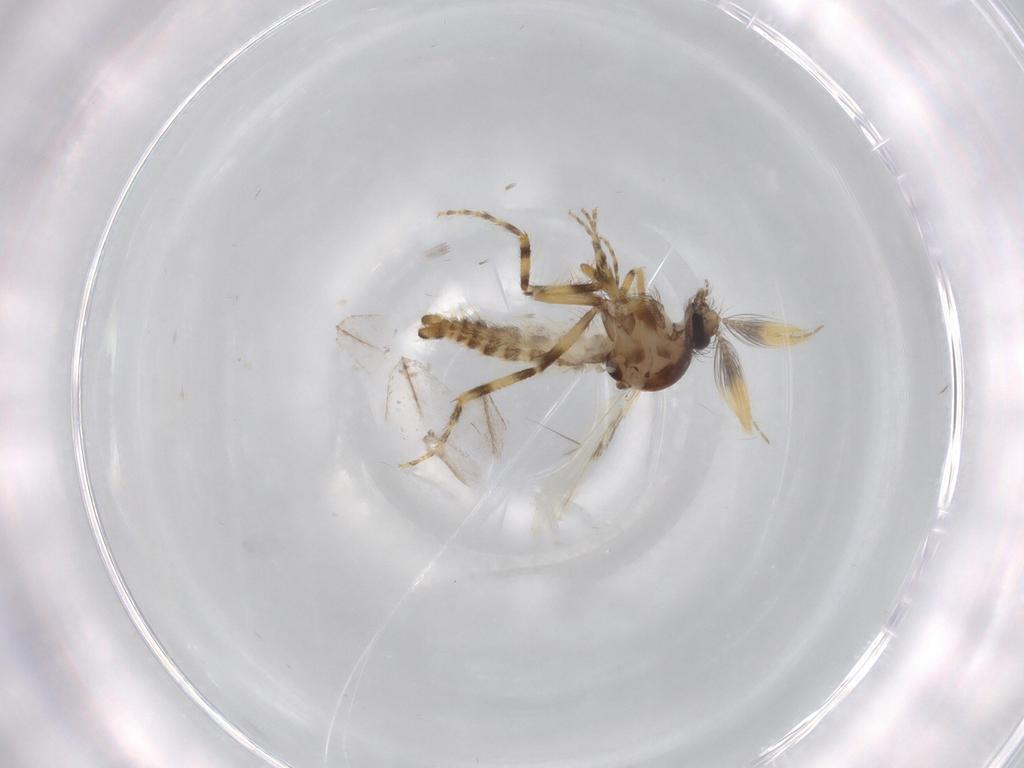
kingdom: Animalia
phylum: Arthropoda
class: Insecta
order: Diptera
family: Ceratopogonidae
